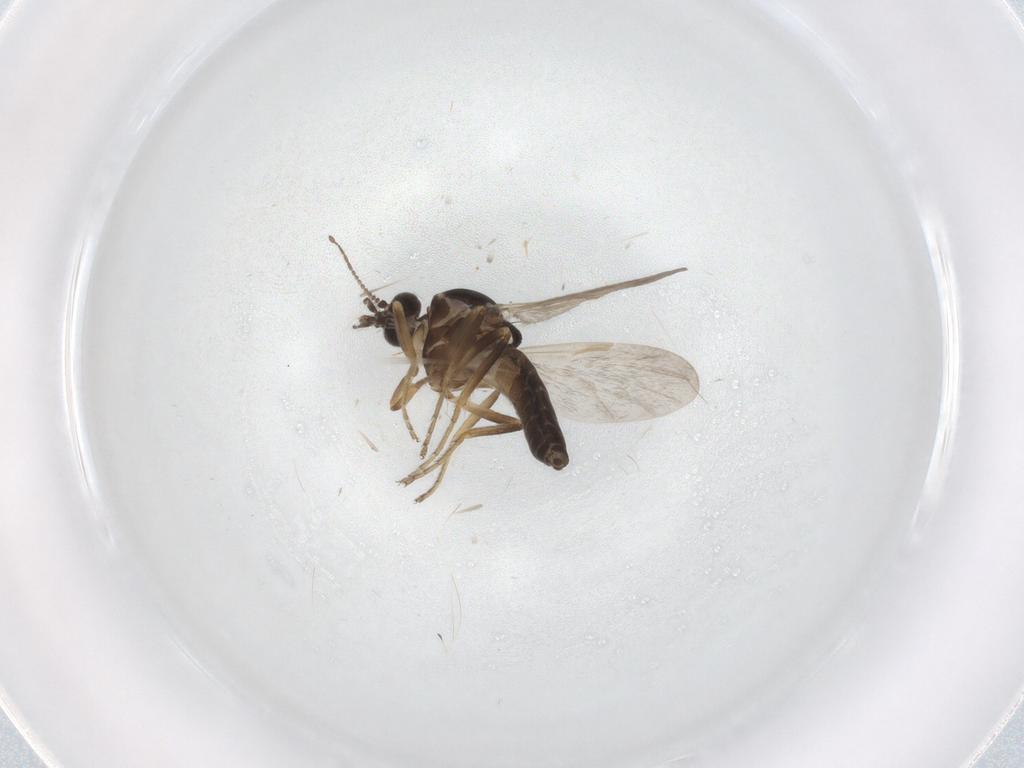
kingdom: Animalia
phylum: Arthropoda
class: Insecta
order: Diptera
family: Ceratopogonidae
